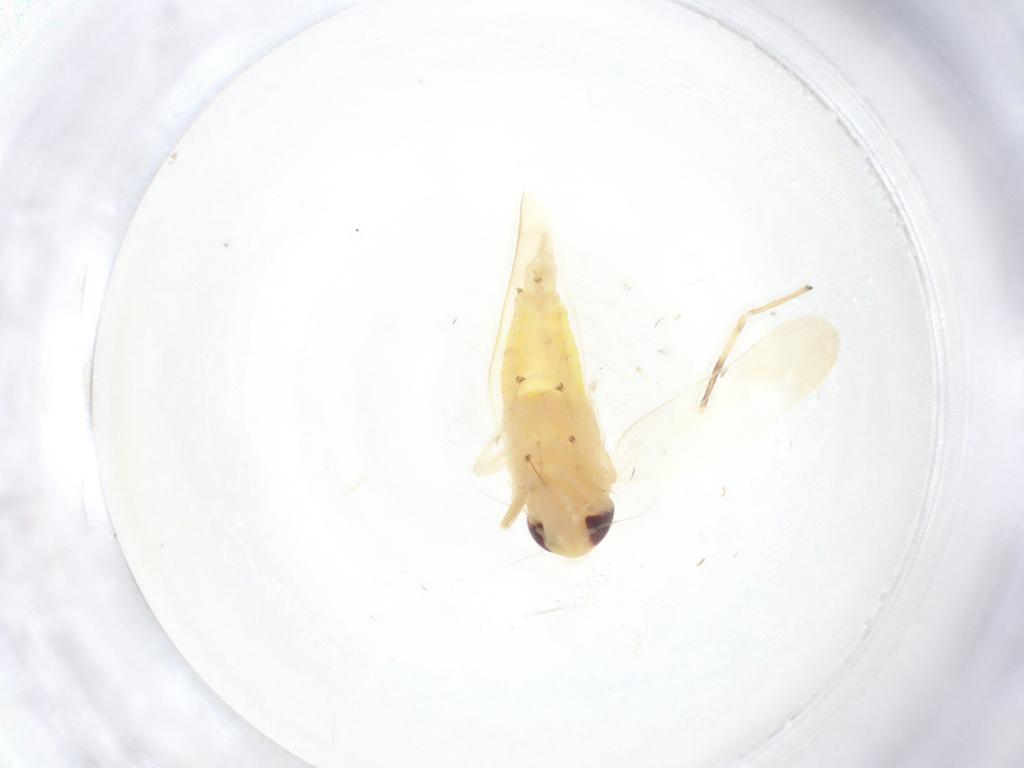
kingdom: Animalia
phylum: Arthropoda
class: Insecta
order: Hemiptera
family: Cicadellidae
